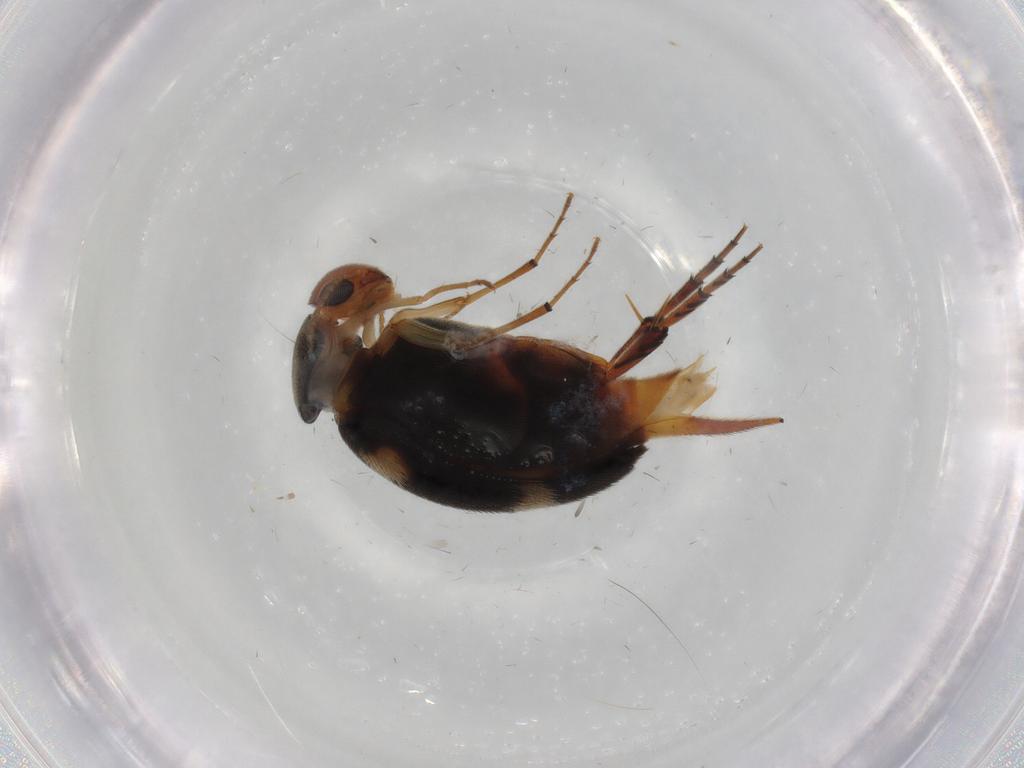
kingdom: Animalia
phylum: Arthropoda
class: Insecta
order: Coleoptera
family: Mordellidae
